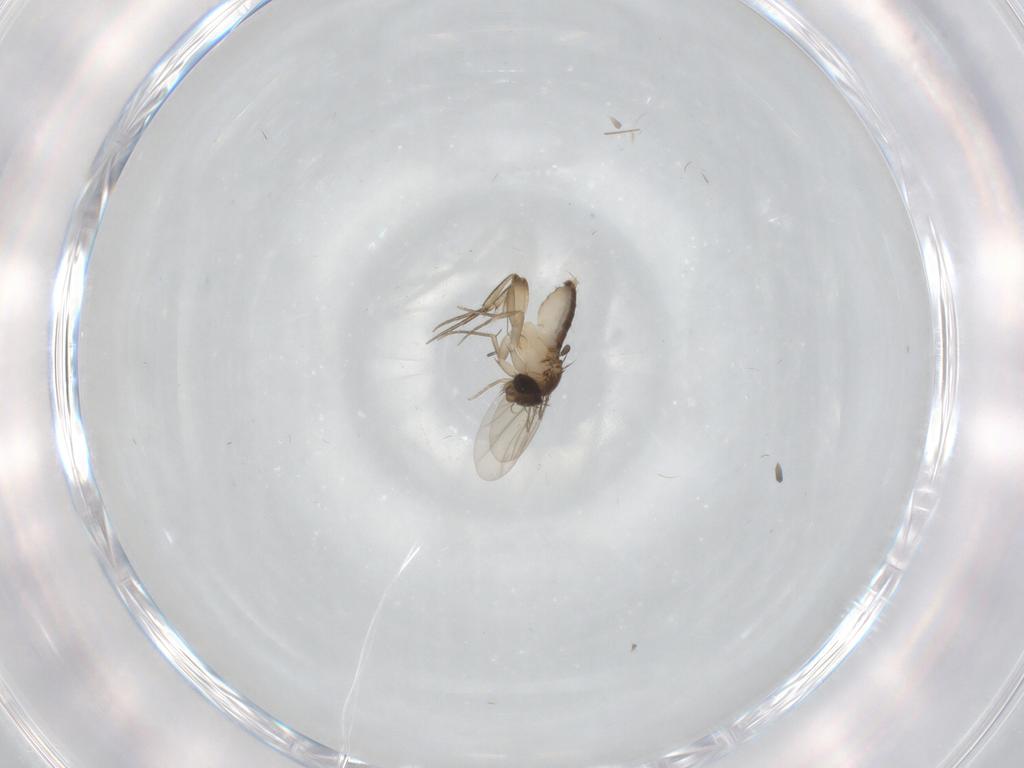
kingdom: Animalia
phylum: Arthropoda
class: Insecta
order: Diptera
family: Phoridae
